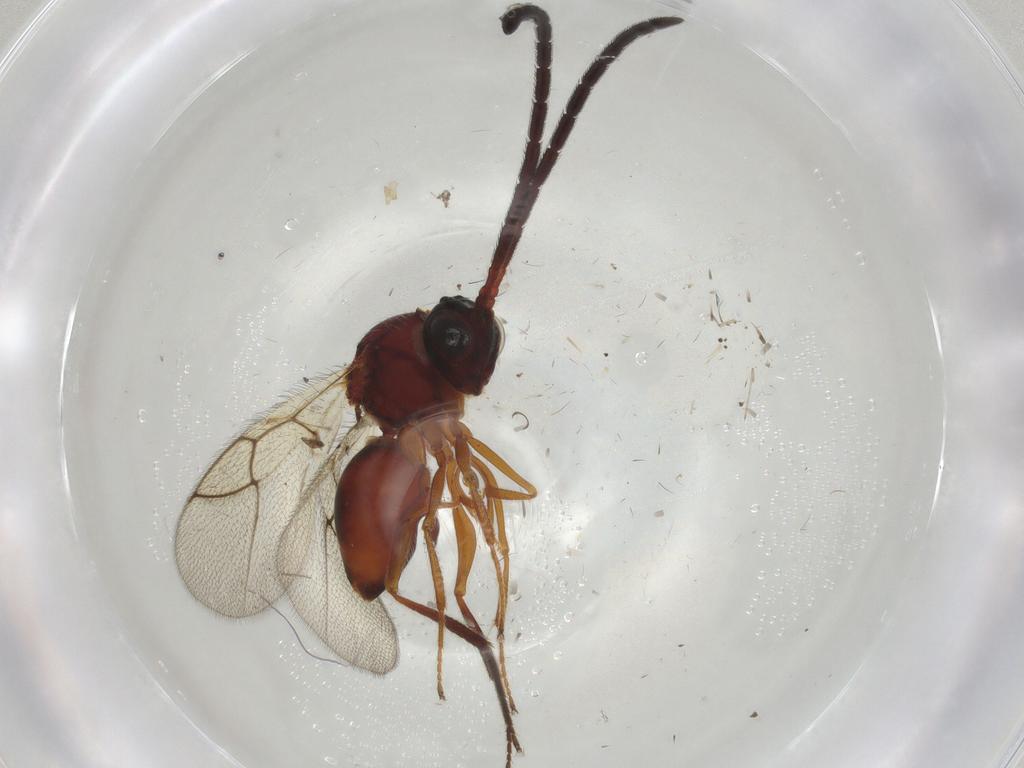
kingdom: Animalia
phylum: Arthropoda
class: Insecta
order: Hymenoptera
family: Figitidae
